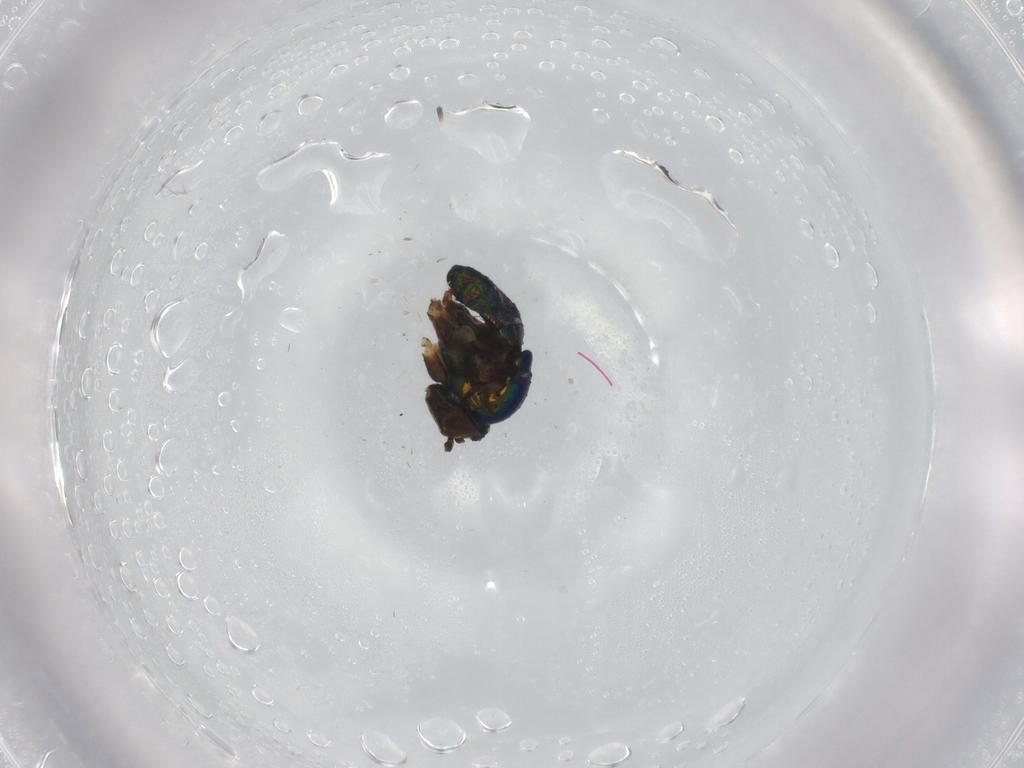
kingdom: Animalia
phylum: Arthropoda
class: Insecta
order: Diptera
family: Dolichopodidae
